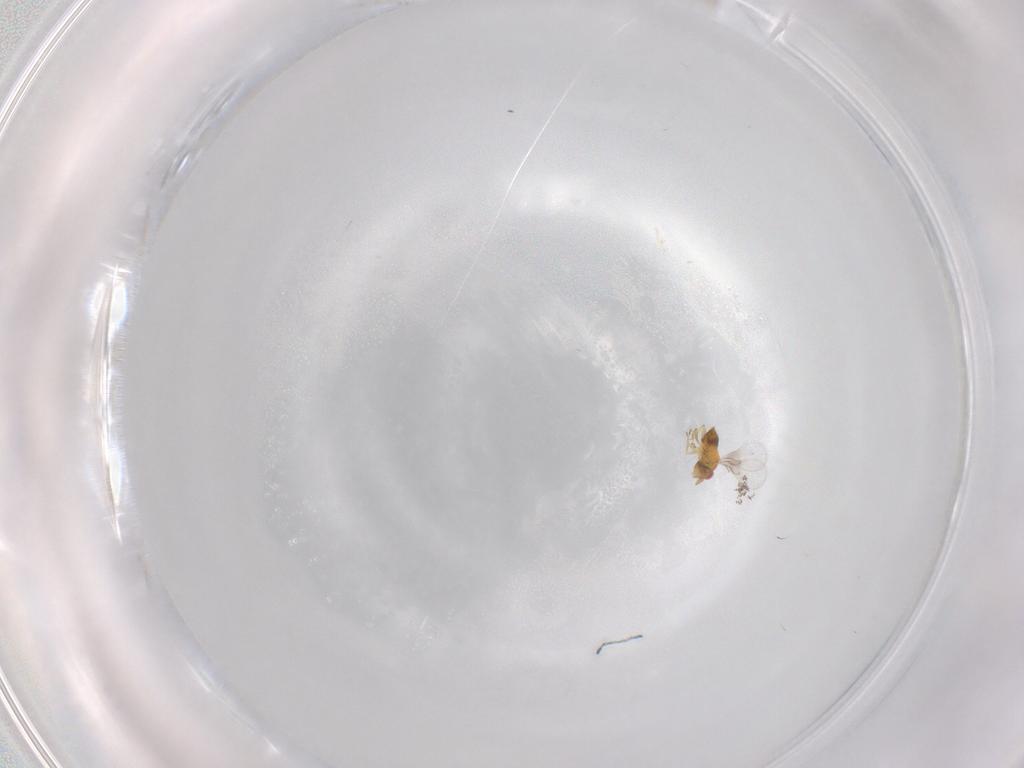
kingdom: Animalia
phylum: Arthropoda
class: Insecta
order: Hymenoptera
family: Trichogrammatidae
